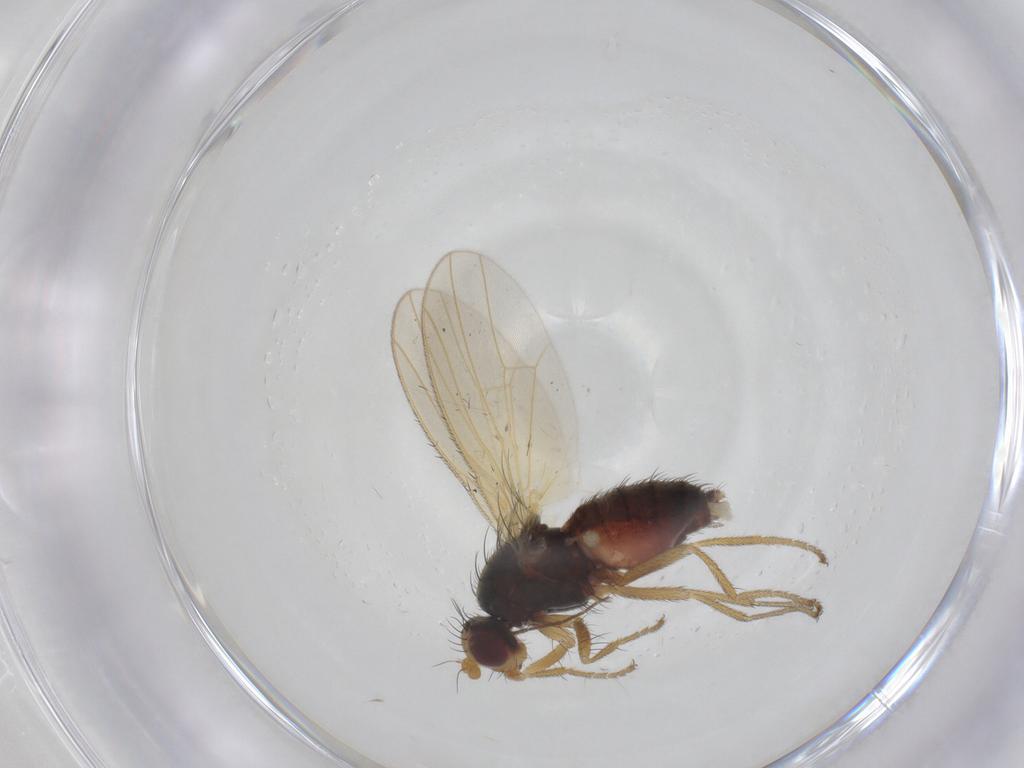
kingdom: Animalia
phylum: Arthropoda
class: Insecta
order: Diptera
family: Heleomyzidae
